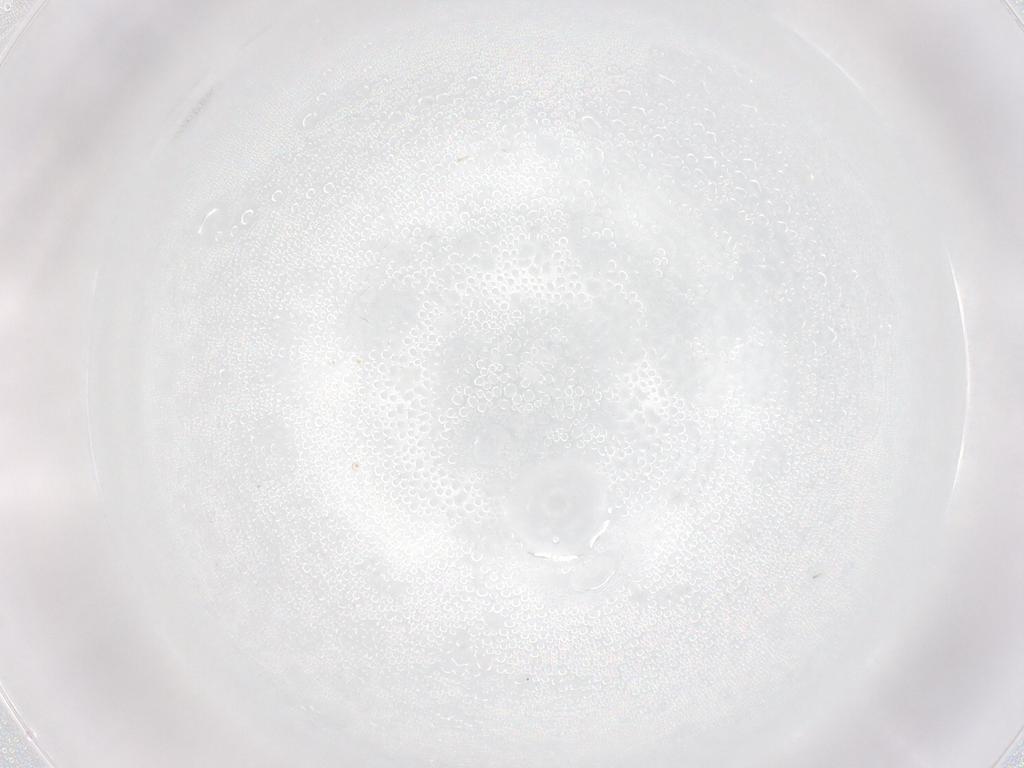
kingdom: Animalia
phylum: Arthropoda
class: Insecta
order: Diptera
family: Cecidomyiidae
